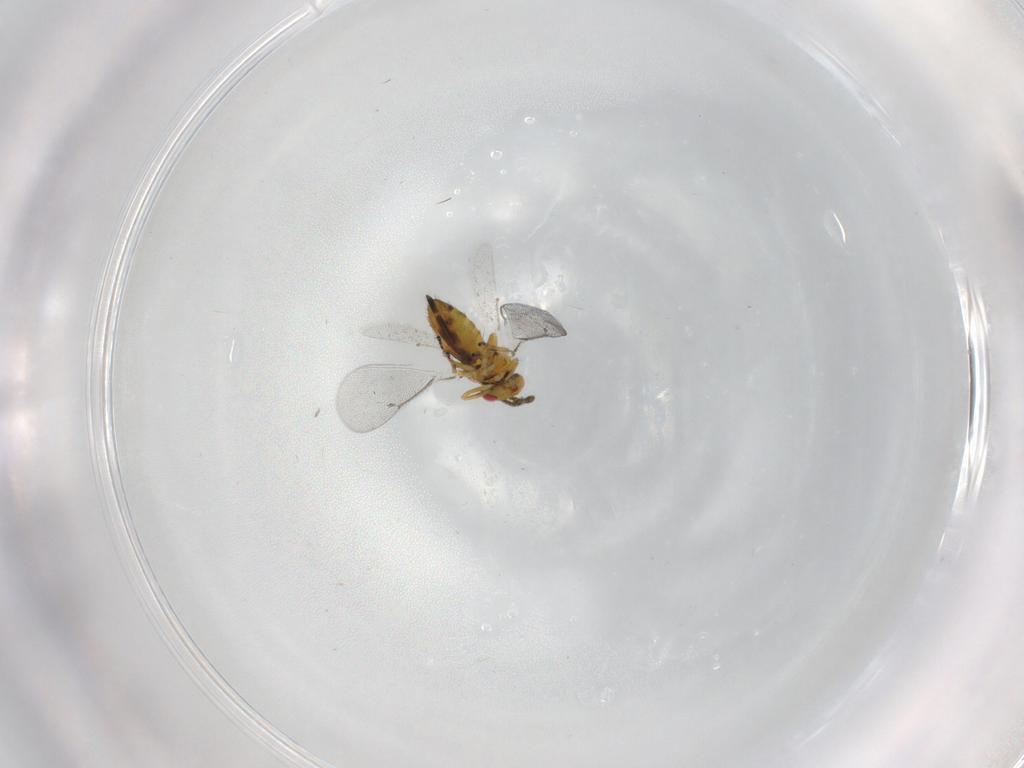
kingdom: Animalia
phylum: Arthropoda
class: Insecta
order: Hymenoptera
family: Eulophidae
